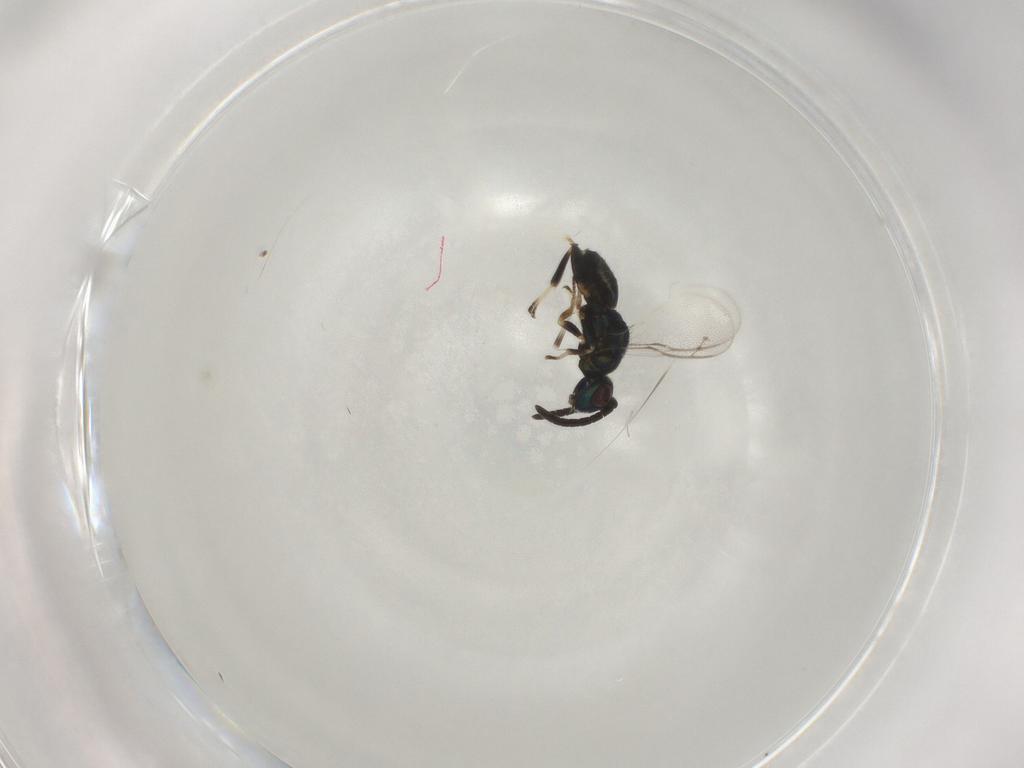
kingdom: Animalia
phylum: Arthropoda
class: Insecta
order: Hymenoptera
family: Eupelmidae
